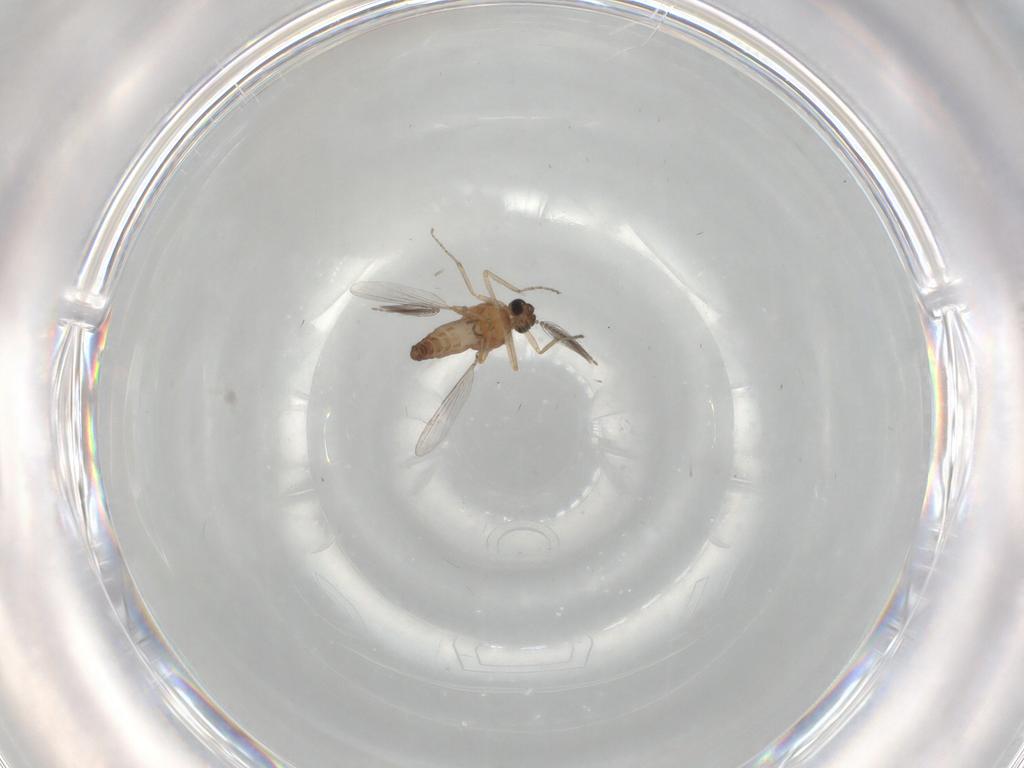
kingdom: Animalia
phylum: Arthropoda
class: Insecta
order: Diptera
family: Ceratopogonidae
